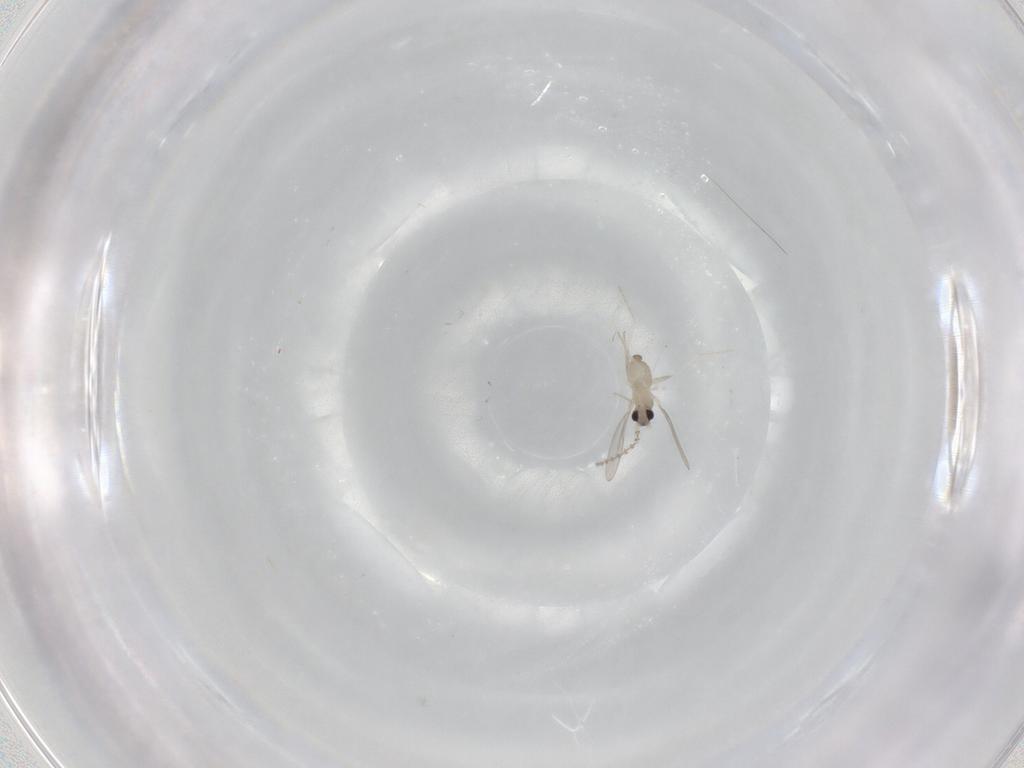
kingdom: Animalia
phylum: Arthropoda
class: Insecta
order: Diptera
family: Cecidomyiidae
